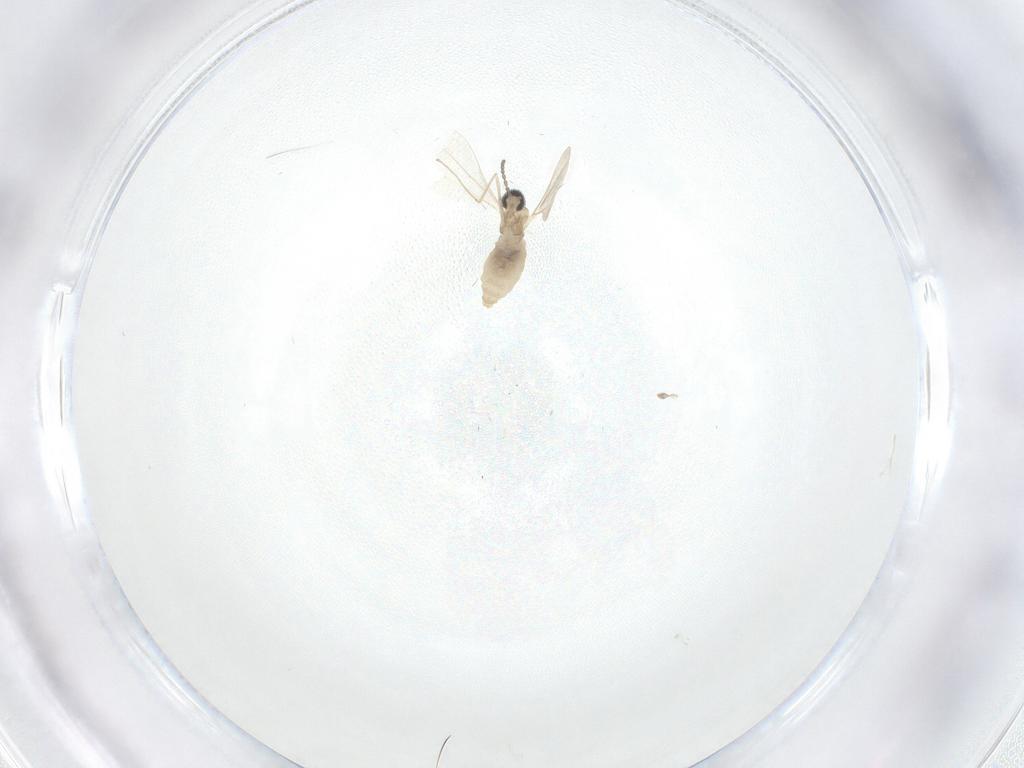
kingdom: Animalia
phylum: Arthropoda
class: Insecta
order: Diptera
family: Cecidomyiidae
